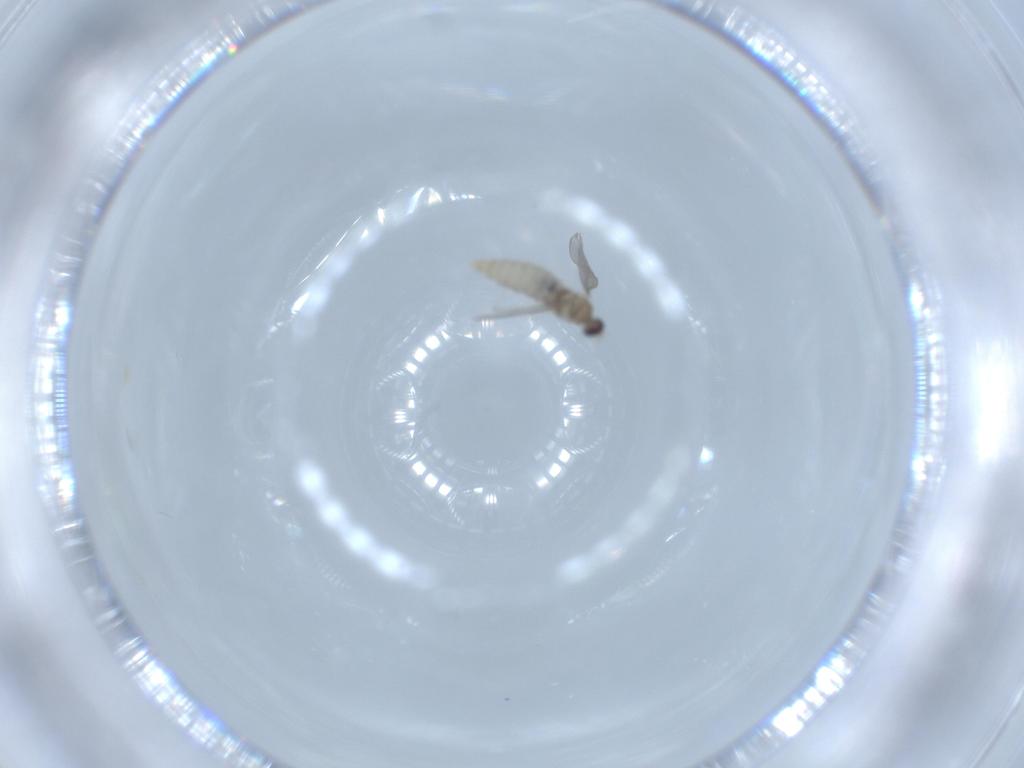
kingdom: Animalia
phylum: Arthropoda
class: Insecta
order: Diptera
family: Cecidomyiidae
